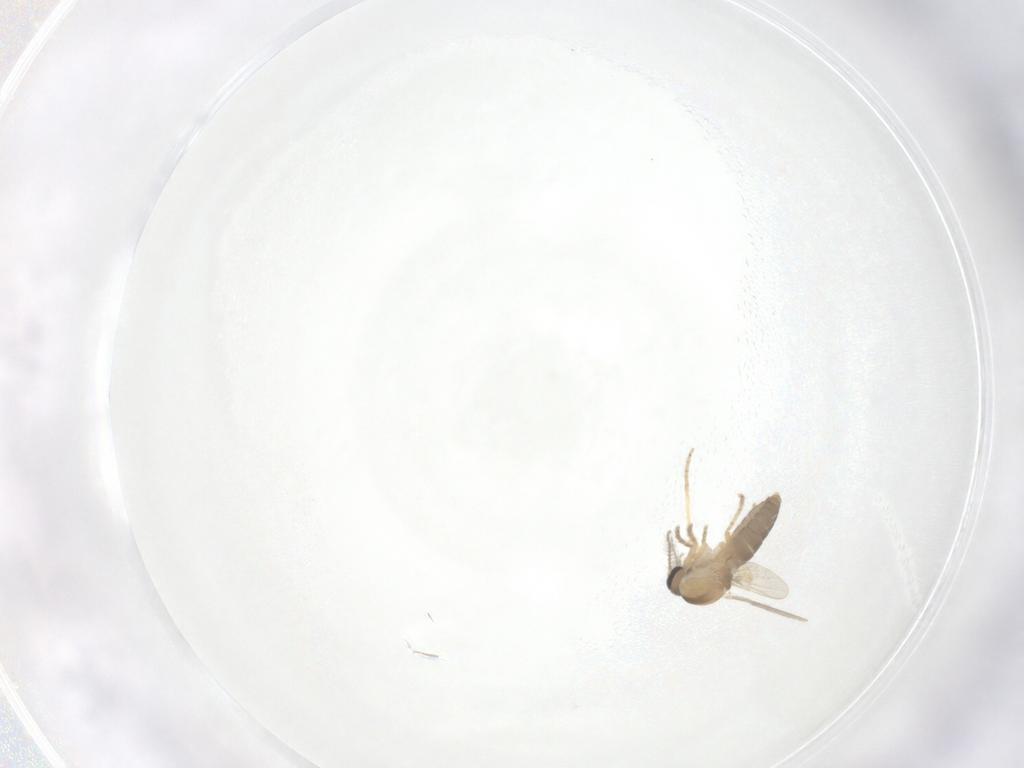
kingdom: Animalia
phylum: Arthropoda
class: Insecta
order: Diptera
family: Ceratopogonidae
